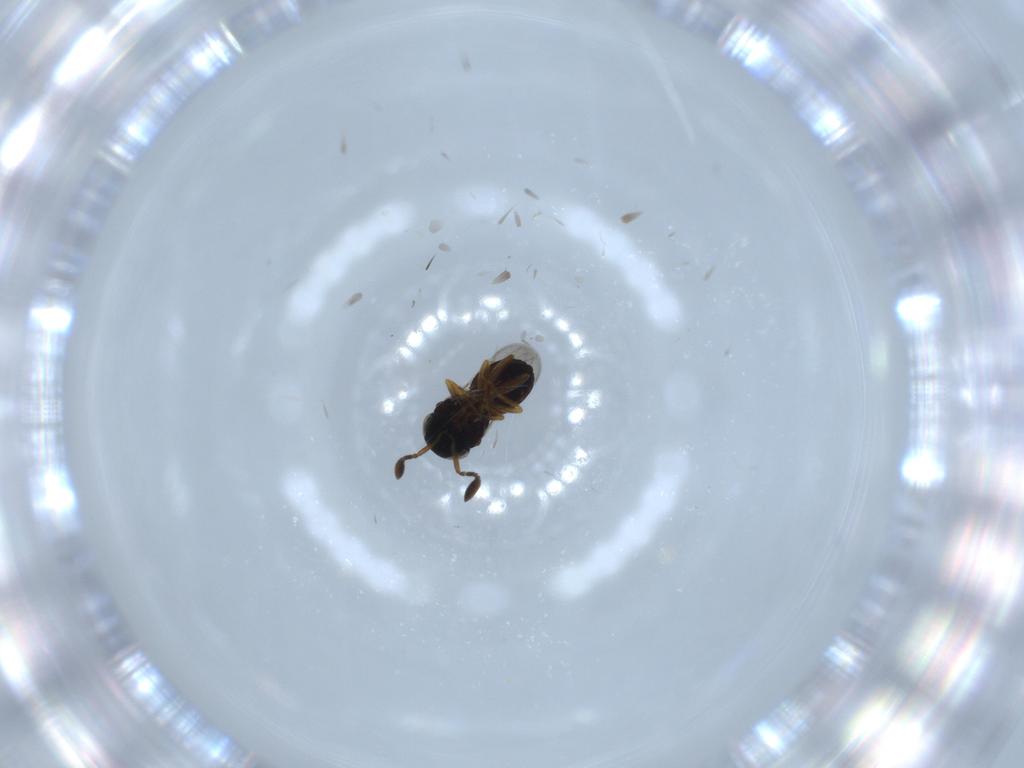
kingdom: Animalia
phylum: Arthropoda
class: Insecta
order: Hymenoptera
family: Scelionidae
